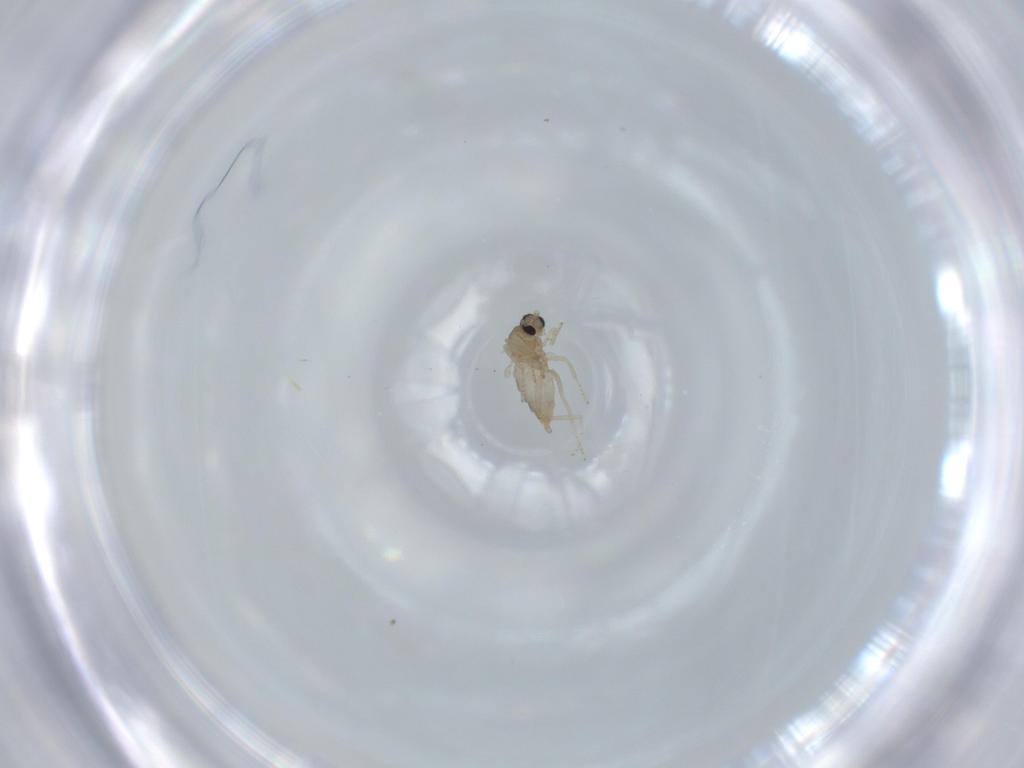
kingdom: Animalia
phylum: Arthropoda
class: Insecta
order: Diptera
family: Cecidomyiidae
